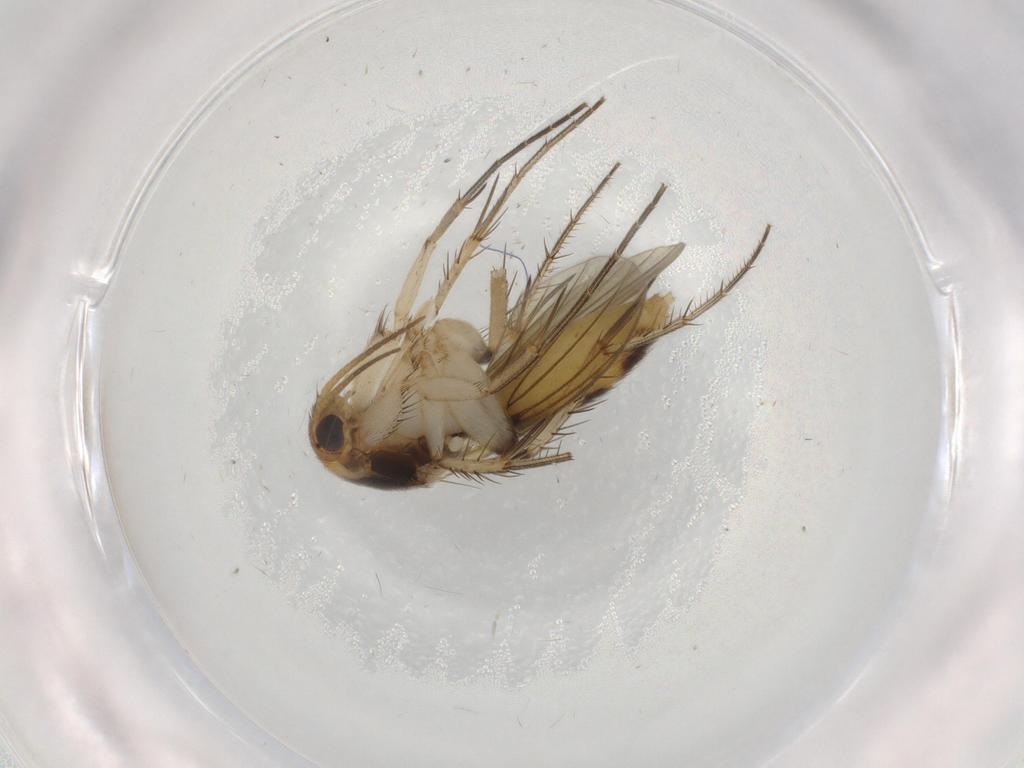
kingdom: Animalia
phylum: Arthropoda
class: Insecta
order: Diptera
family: Mycetophilidae
